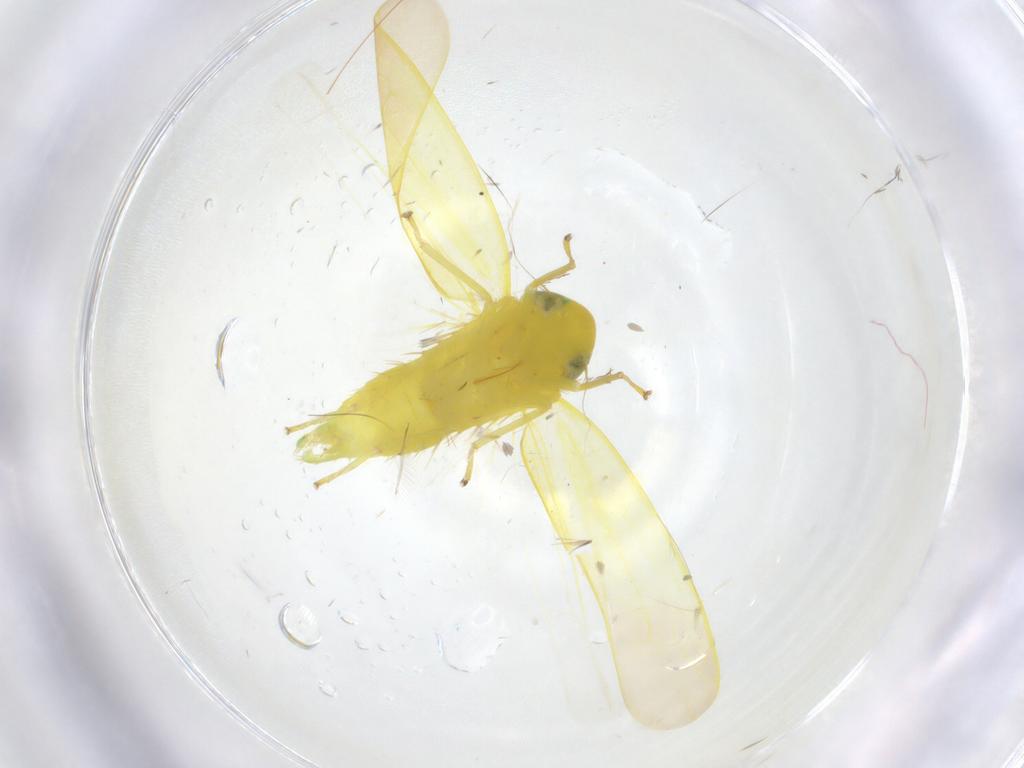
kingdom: Animalia
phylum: Arthropoda
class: Insecta
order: Hemiptera
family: Cicadellidae
